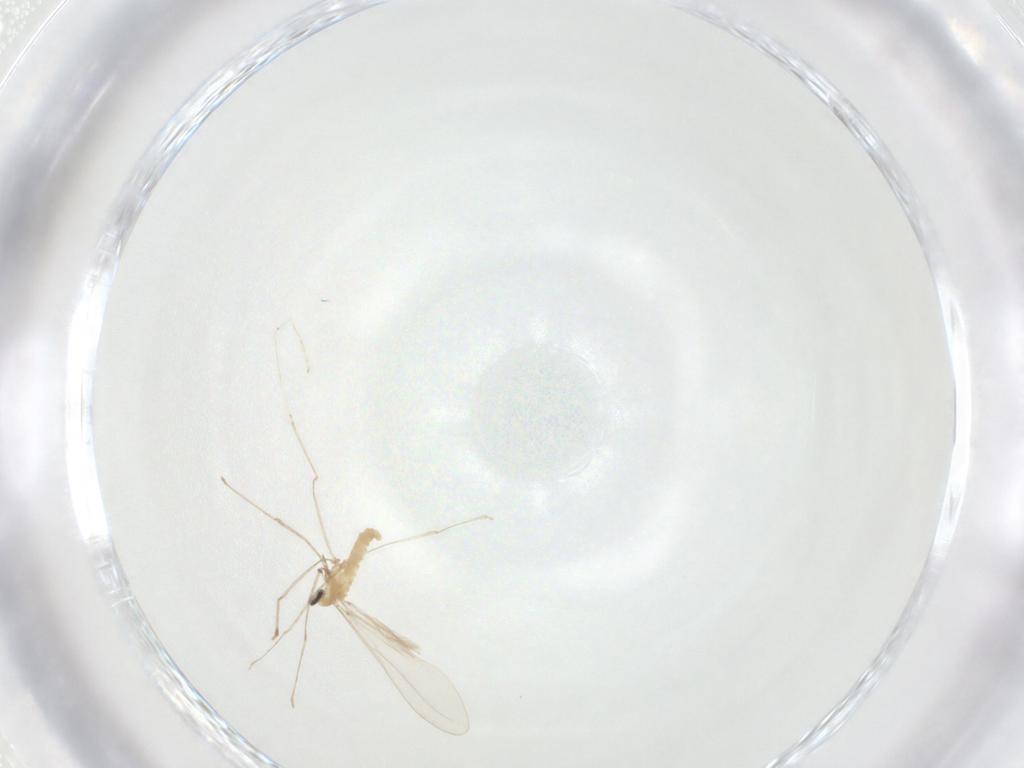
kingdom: Animalia
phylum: Arthropoda
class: Insecta
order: Diptera
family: Cecidomyiidae
